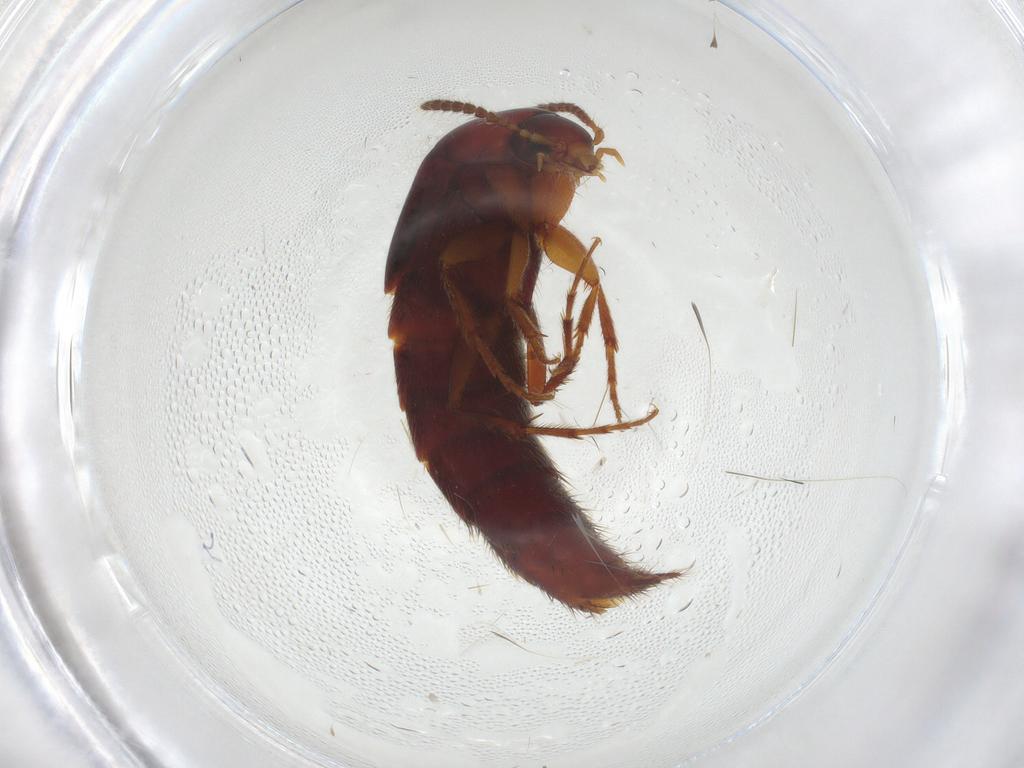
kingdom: Animalia
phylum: Arthropoda
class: Insecta
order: Coleoptera
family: Staphylinidae
